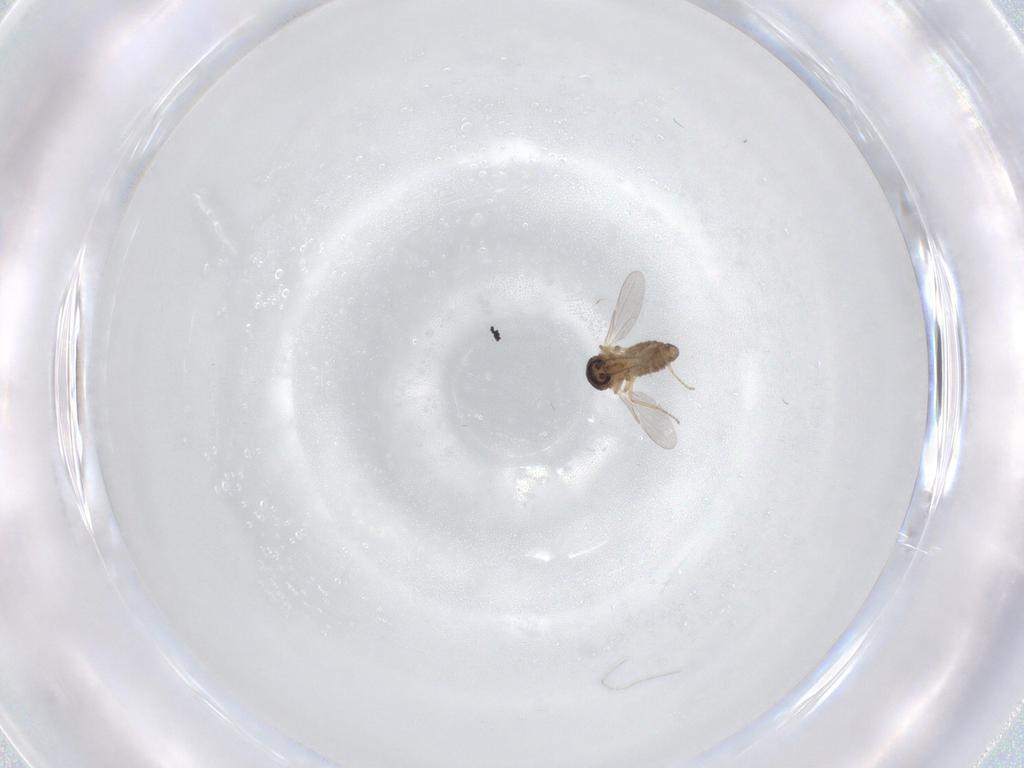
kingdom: Animalia
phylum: Arthropoda
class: Insecta
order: Diptera
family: Ceratopogonidae
